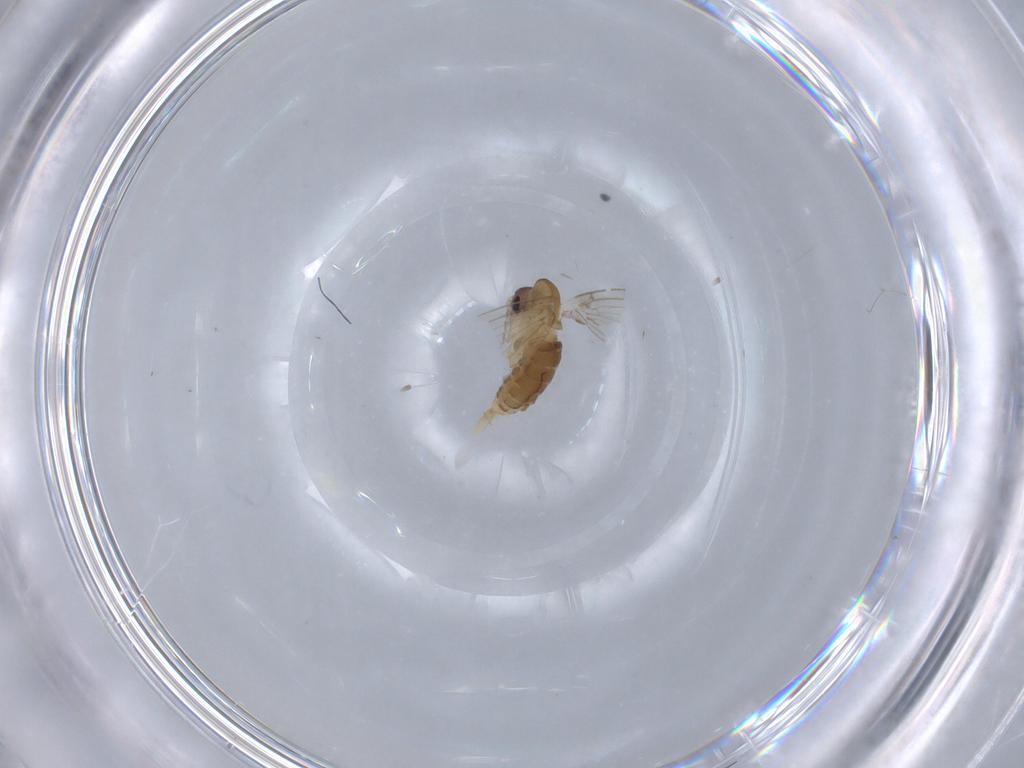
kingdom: Animalia
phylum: Arthropoda
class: Insecta
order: Diptera
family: Psychodidae
